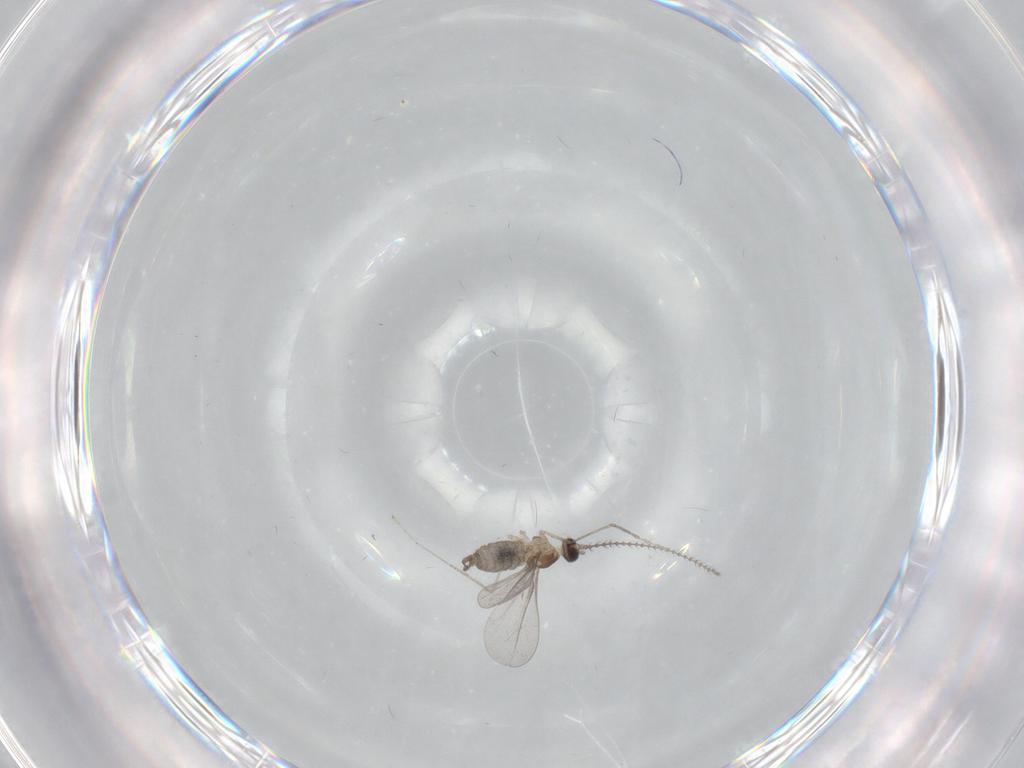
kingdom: Animalia
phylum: Arthropoda
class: Insecta
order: Diptera
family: Cecidomyiidae
